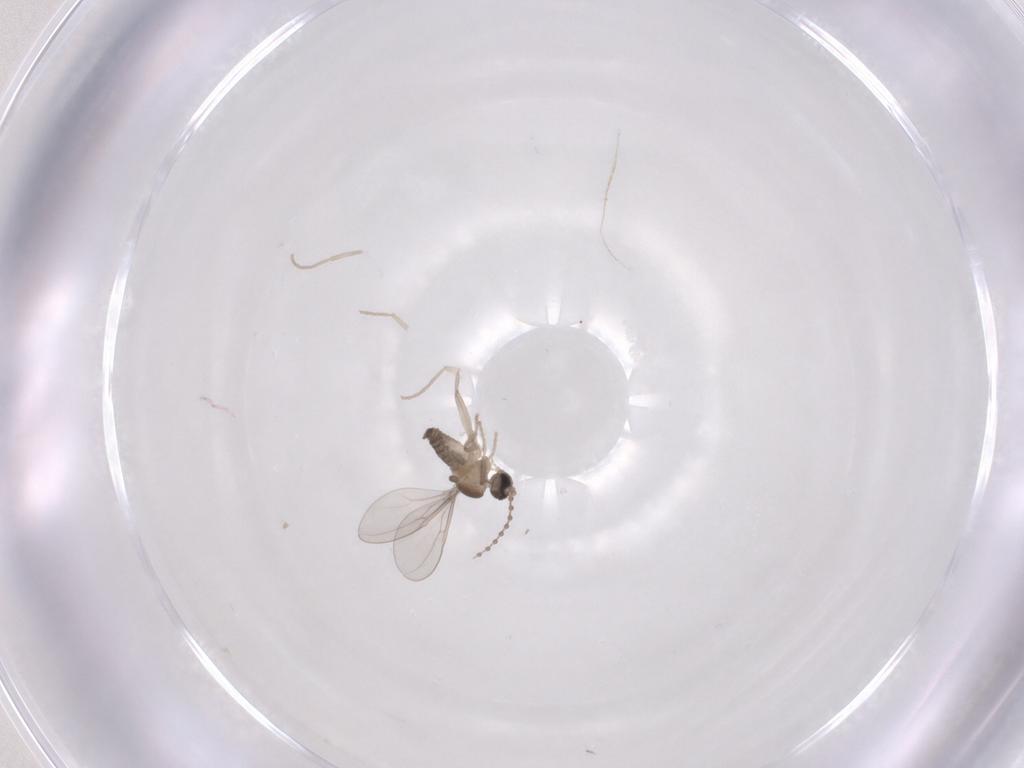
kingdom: Animalia
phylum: Arthropoda
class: Insecta
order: Diptera
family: Cecidomyiidae
